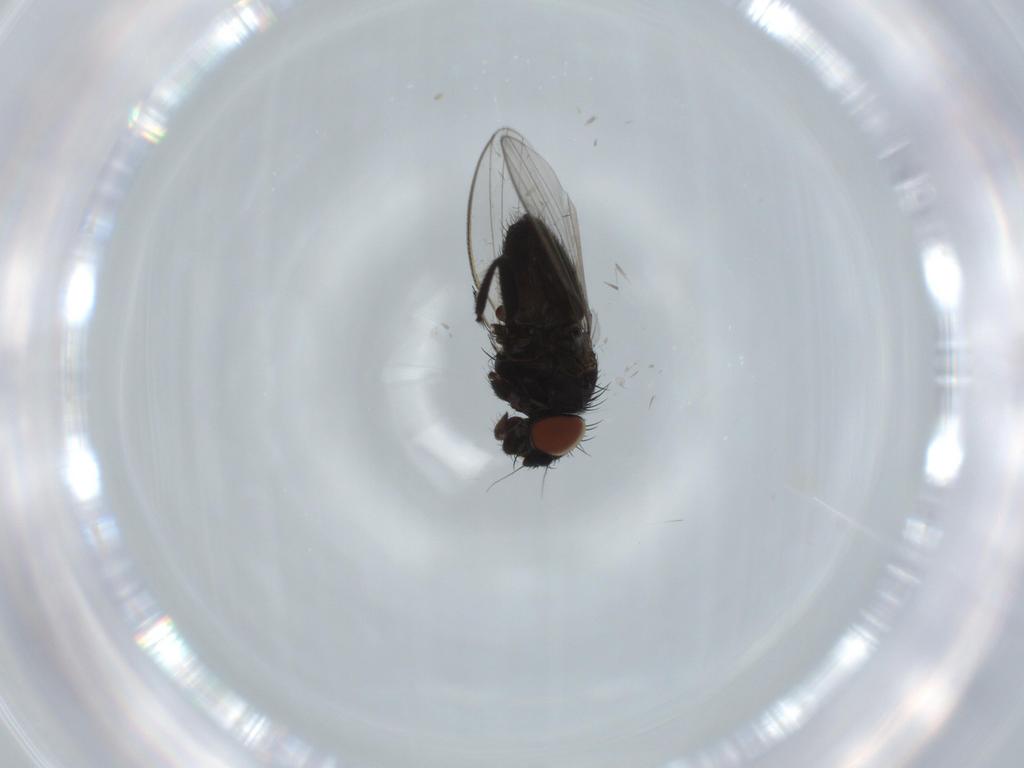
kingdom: Animalia
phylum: Arthropoda
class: Insecta
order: Diptera
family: Milichiidae
